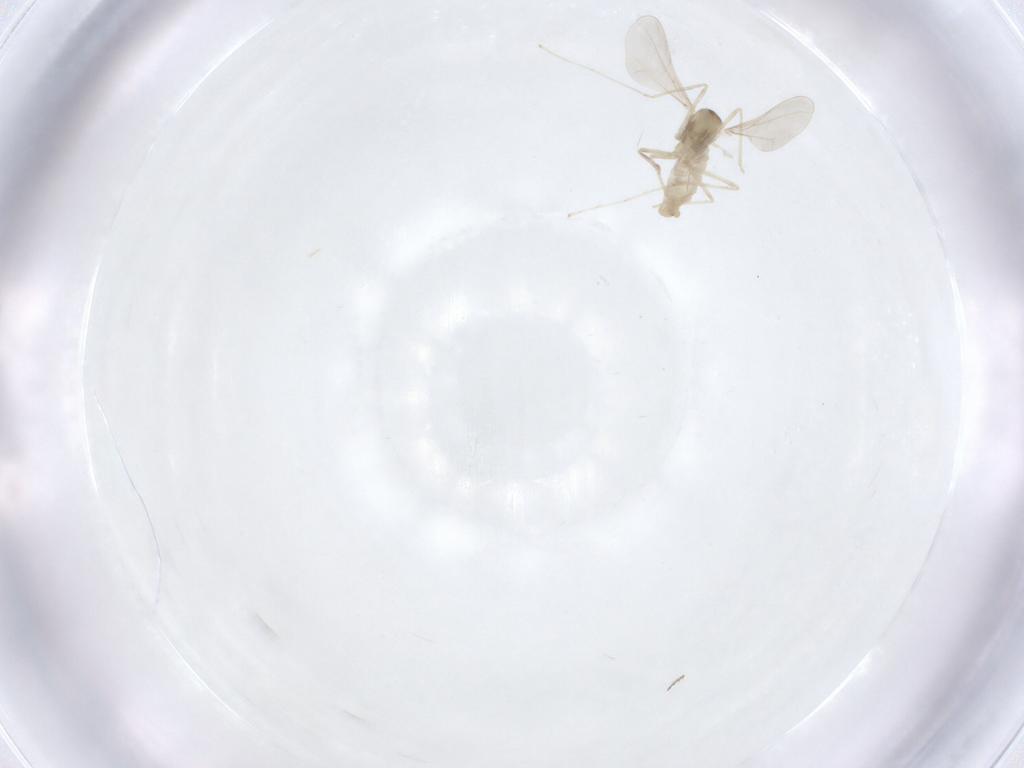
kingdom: Animalia
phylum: Arthropoda
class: Insecta
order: Diptera
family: Cecidomyiidae
